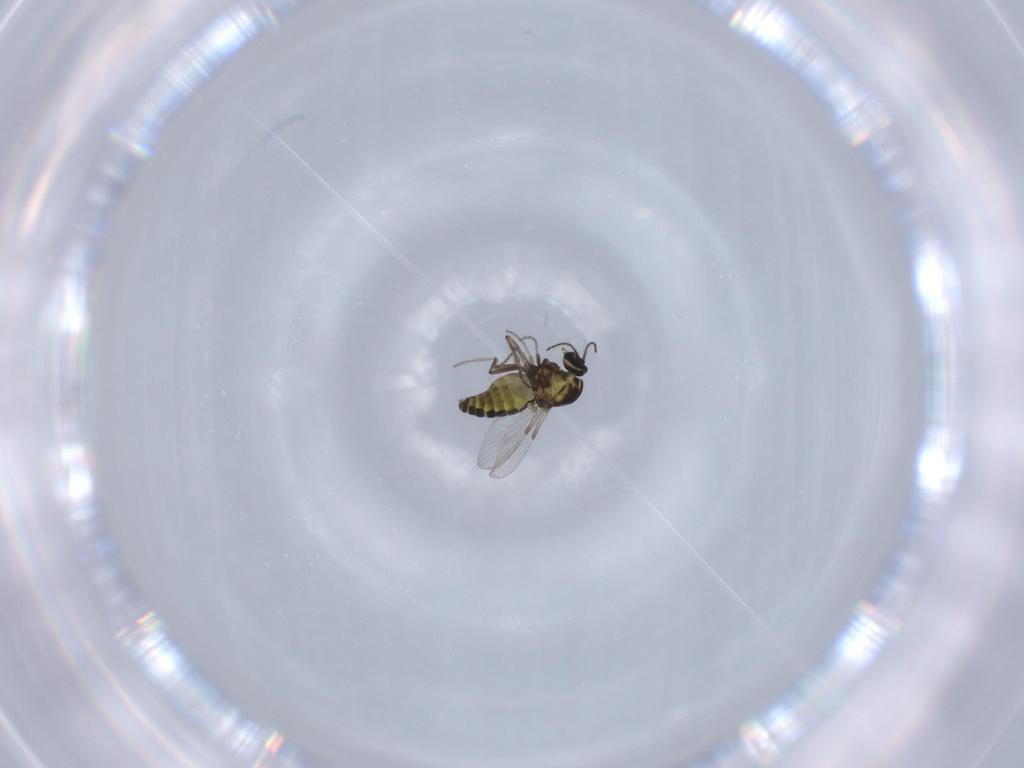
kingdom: Animalia
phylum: Arthropoda
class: Insecta
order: Diptera
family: Ceratopogonidae
